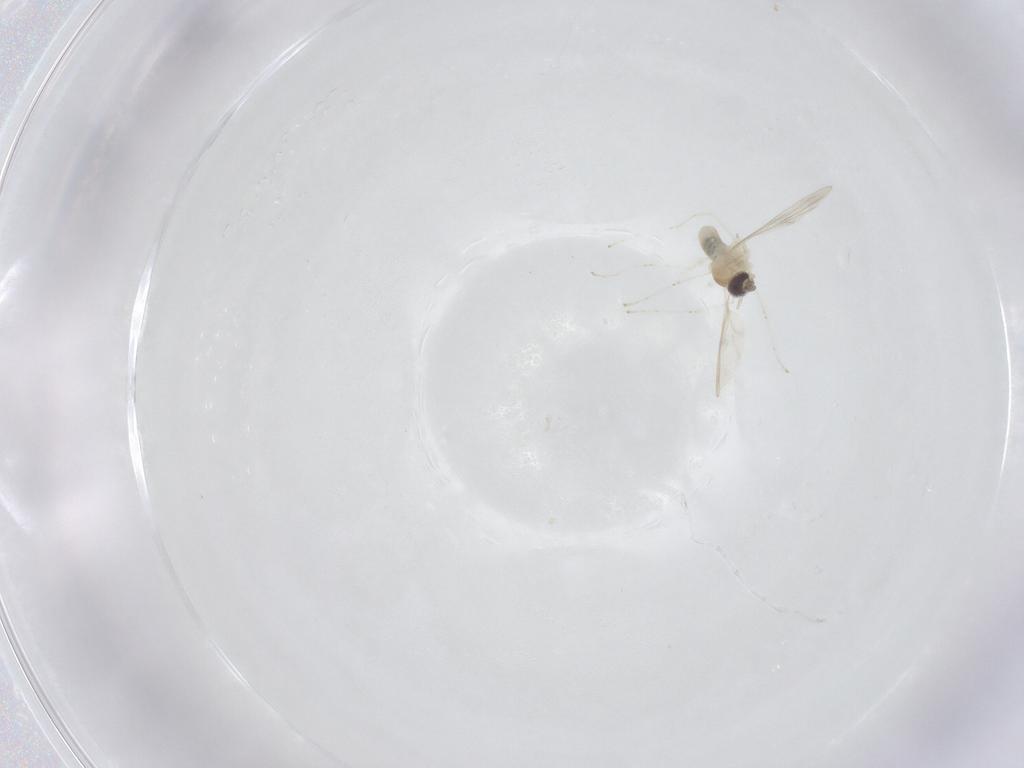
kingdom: Animalia
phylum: Arthropoda
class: Insecta
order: Diptera
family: Cecidomyiidae
